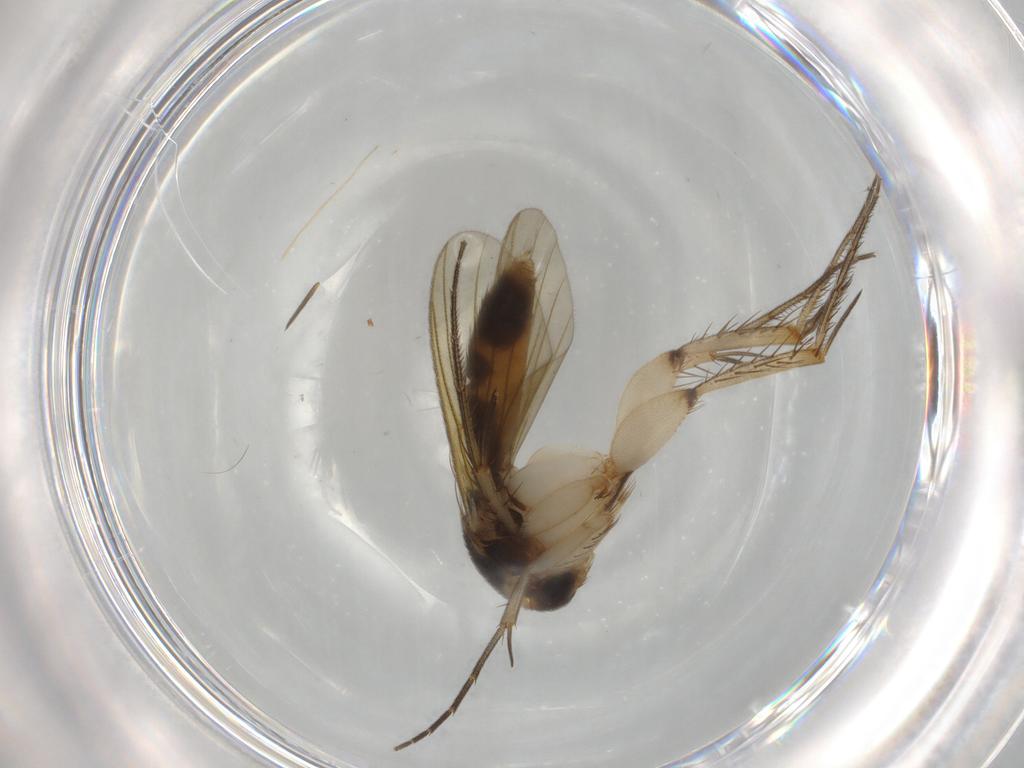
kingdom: Animalia
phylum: Arthropoda
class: Insecta
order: Diptera
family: Mycetophilidae
